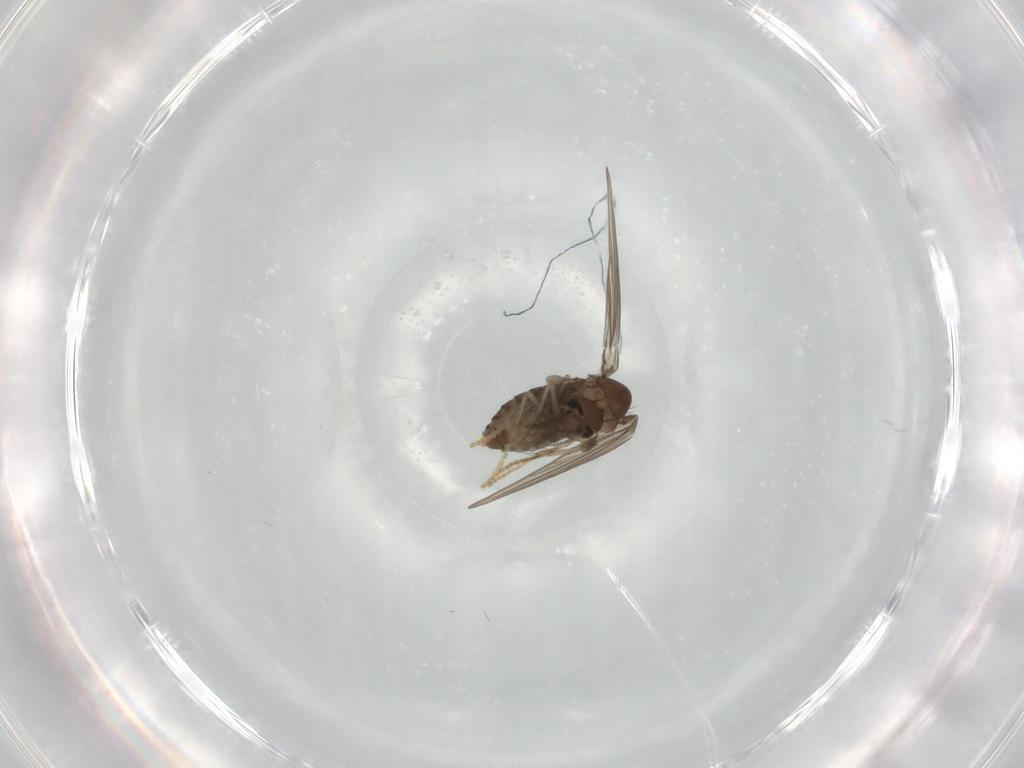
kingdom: Animalia
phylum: Arthropoda
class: Insecta
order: Diptera
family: Psychodidae
